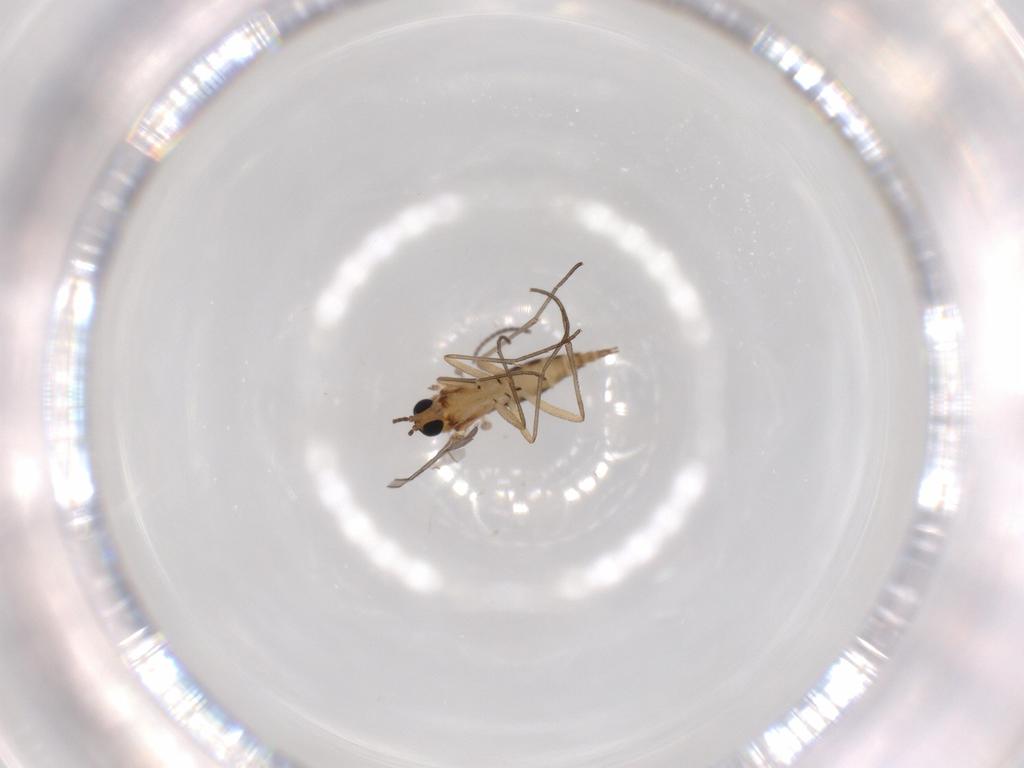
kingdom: Animalia
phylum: Arthropoda
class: Insecta
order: Diptera
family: Sciaridae
